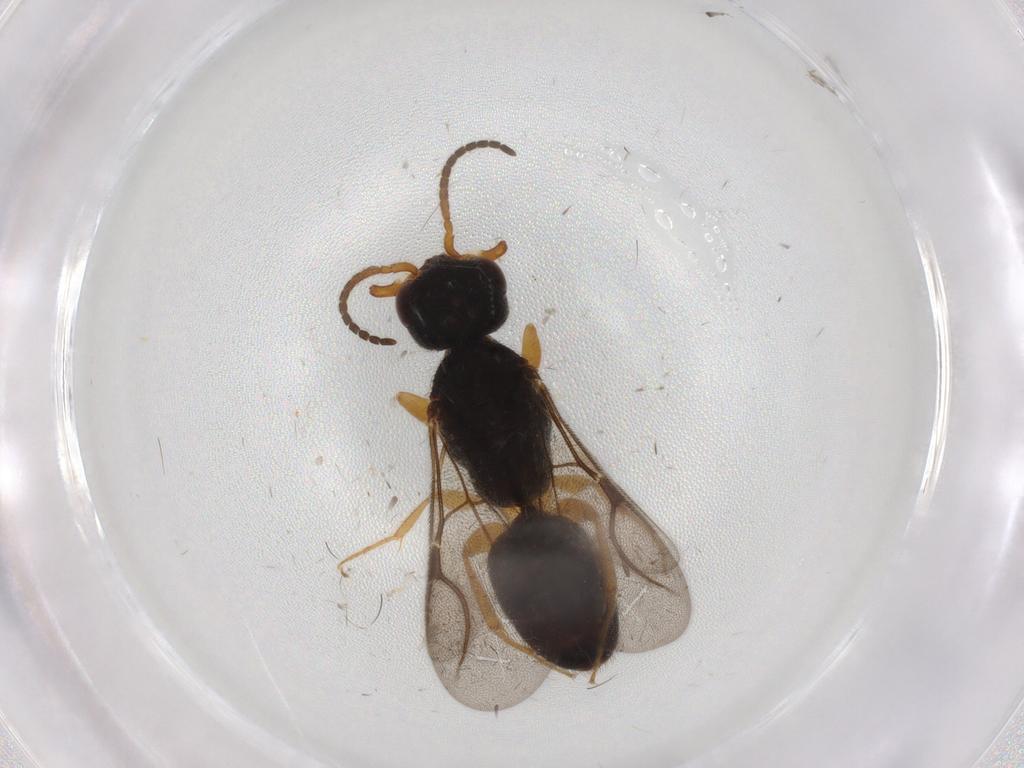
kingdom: Animalia
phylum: Arthropoda
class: Insecta
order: Hymenoptera
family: Bethylidae
